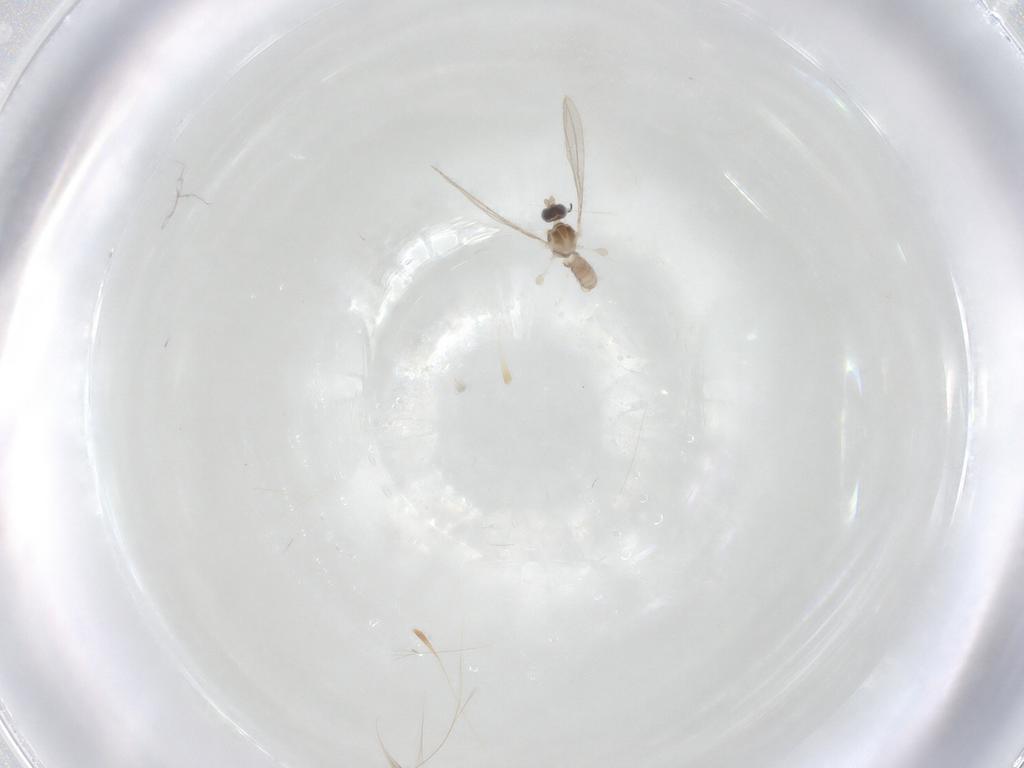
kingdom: Animalia
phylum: Arthropoda
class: Insecta
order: Diptera
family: Cecidomyiidae
